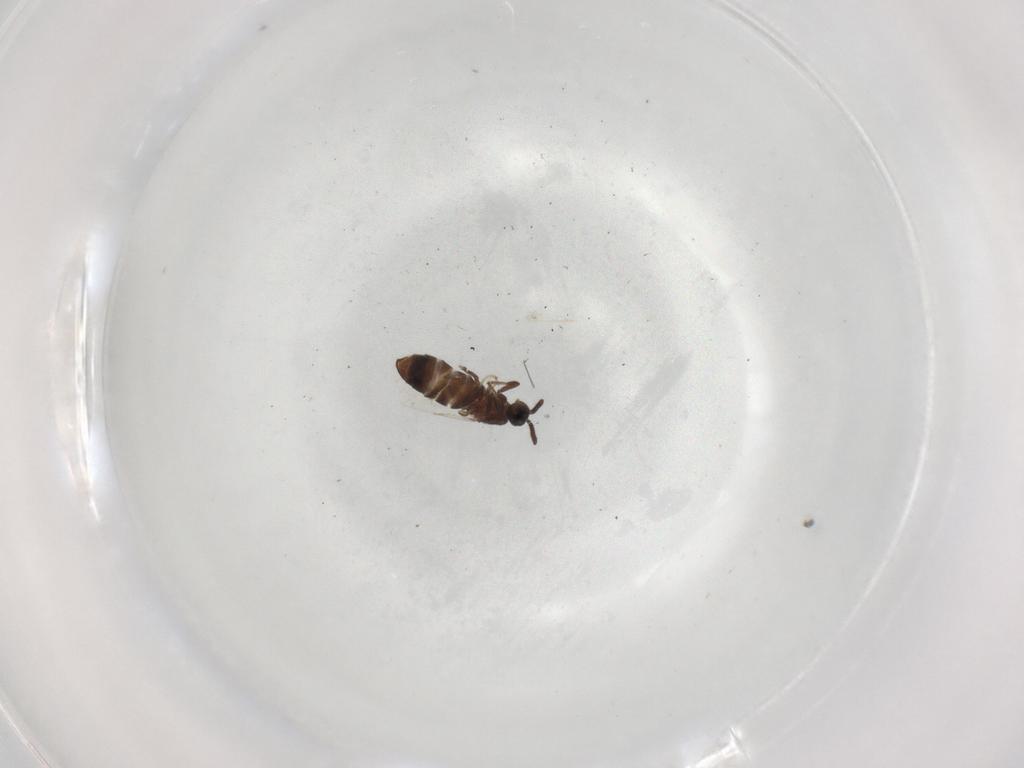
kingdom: Animalia
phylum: Arthropoda
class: Insecta
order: Diptera
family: Scatopsidae
